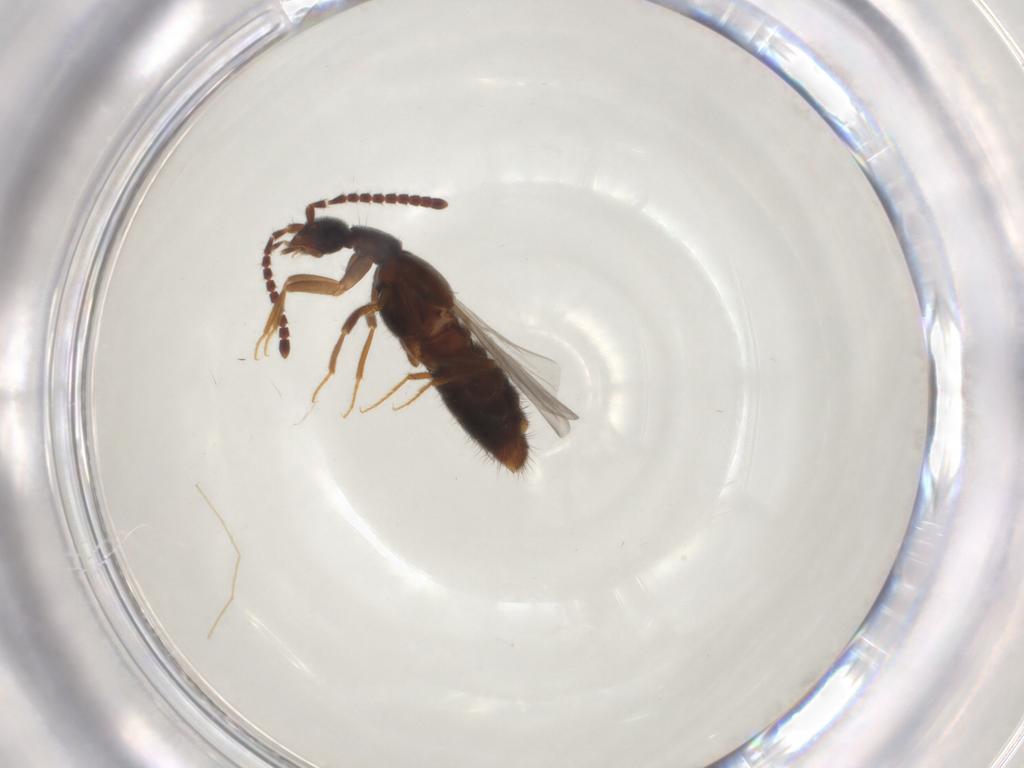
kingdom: Animalia
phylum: Arthropoda
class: Insecta
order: Coleoptera
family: Staphylinidae
